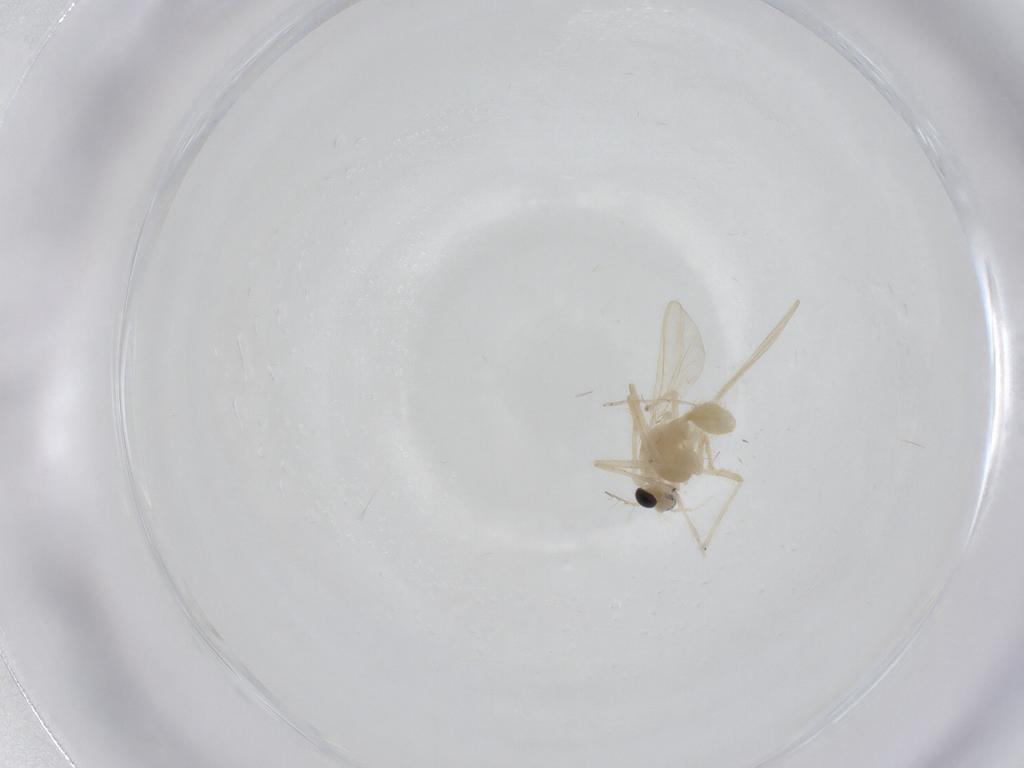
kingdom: Animalia
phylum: Arthropoda
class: Insecta
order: Diptera
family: Chironomidae
